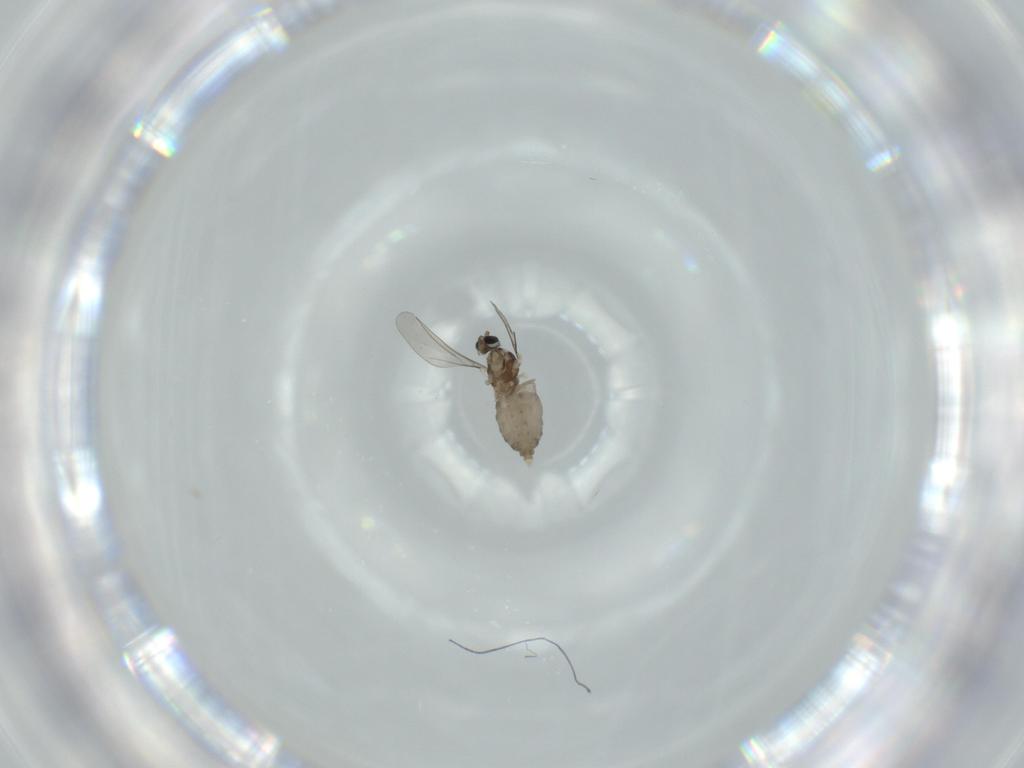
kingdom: Animalia
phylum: Arthropoda
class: Insecta
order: Diptera
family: Cecidomyiidae
